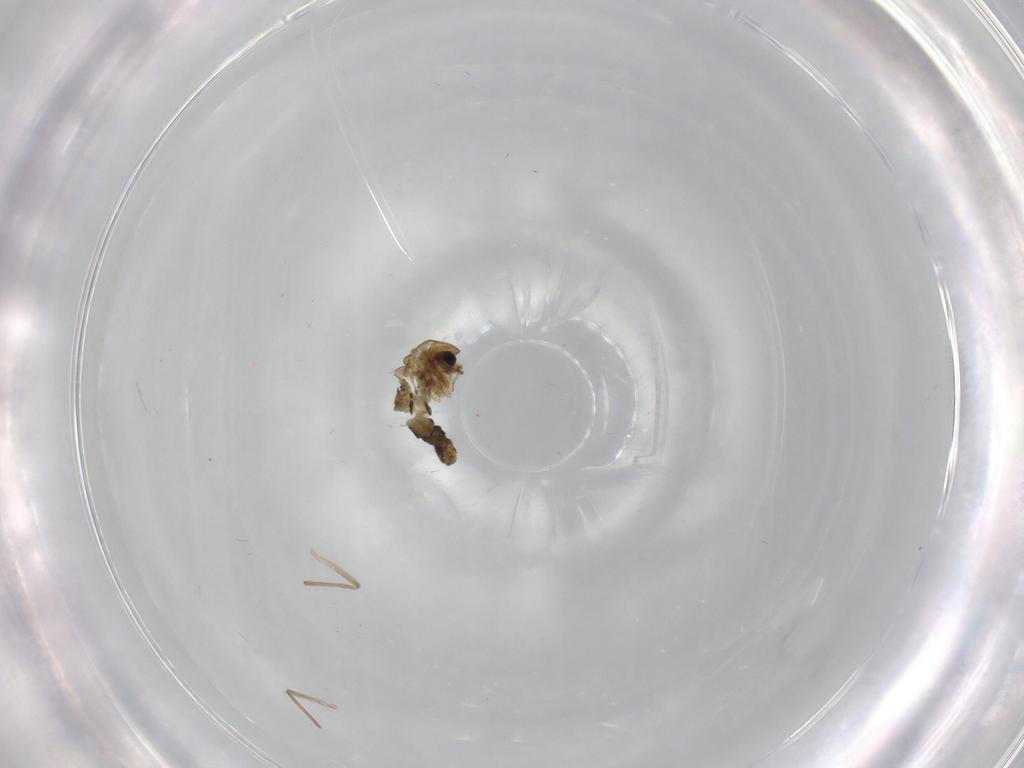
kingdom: Animalia
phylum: Arthropoda
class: Insecta
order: Diptera
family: Chironomidae
